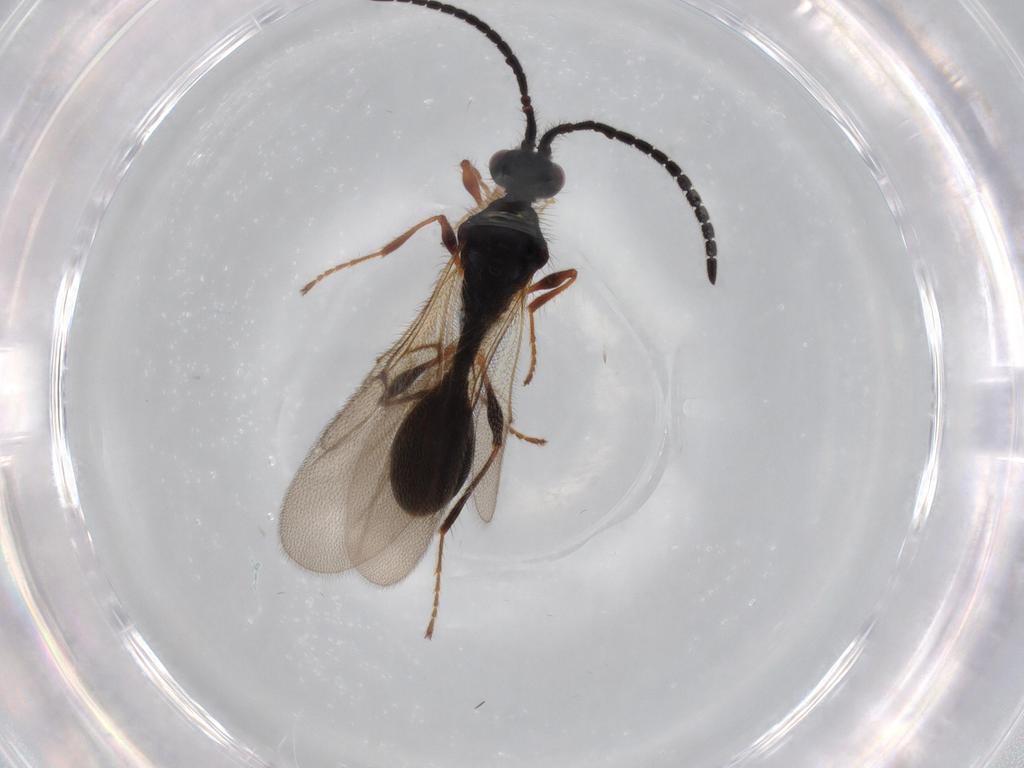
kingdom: Animalia
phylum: Arthropoda
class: Insecta
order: Hymenoptera
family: Diapriidae
